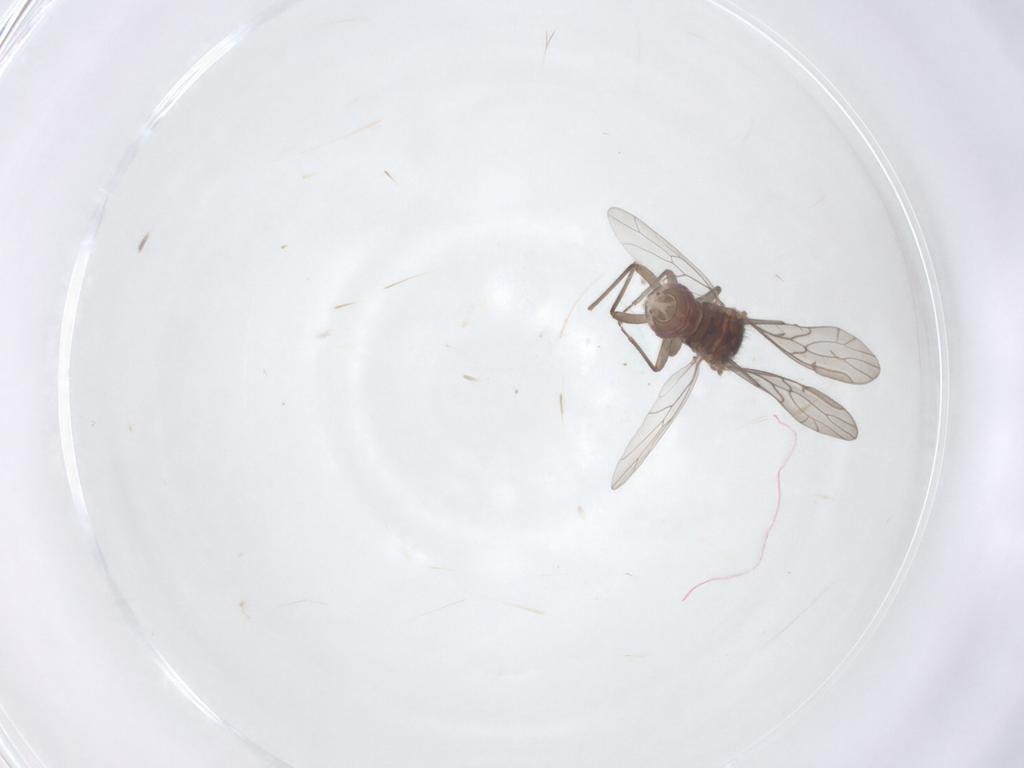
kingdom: Animalia
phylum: Arthropoda
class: Insecta
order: Psocodea
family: Ectopsocidae
